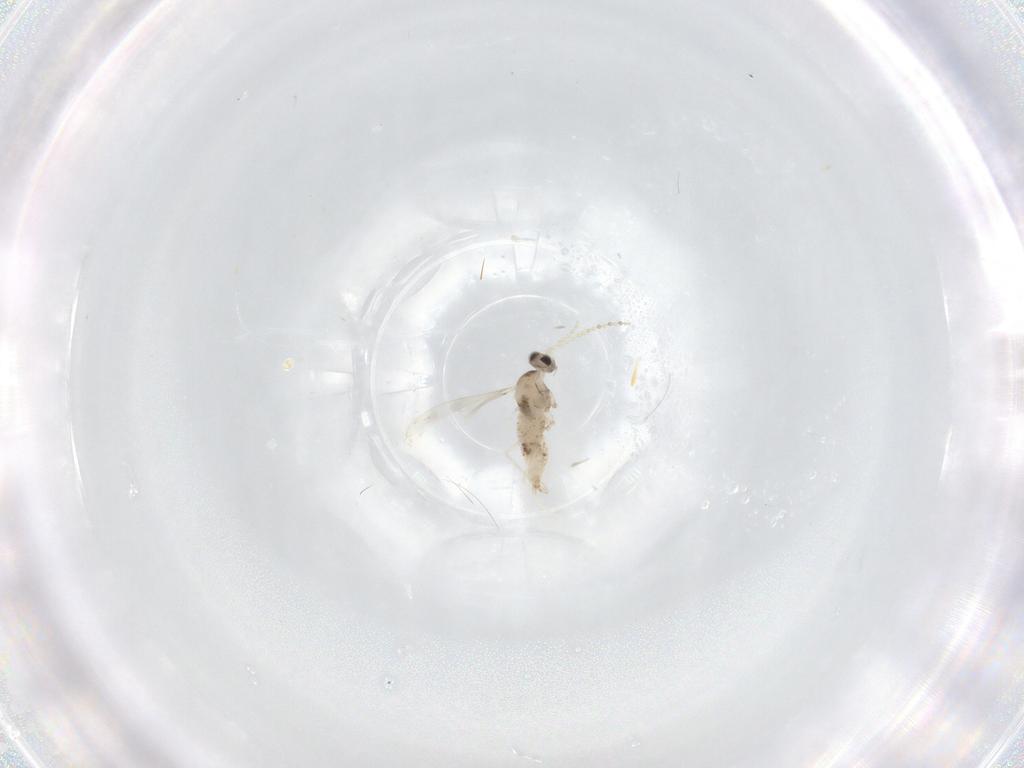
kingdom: Animalia
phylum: Arthropoda
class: Insecta
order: Diptera
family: Cecidomyiidae
